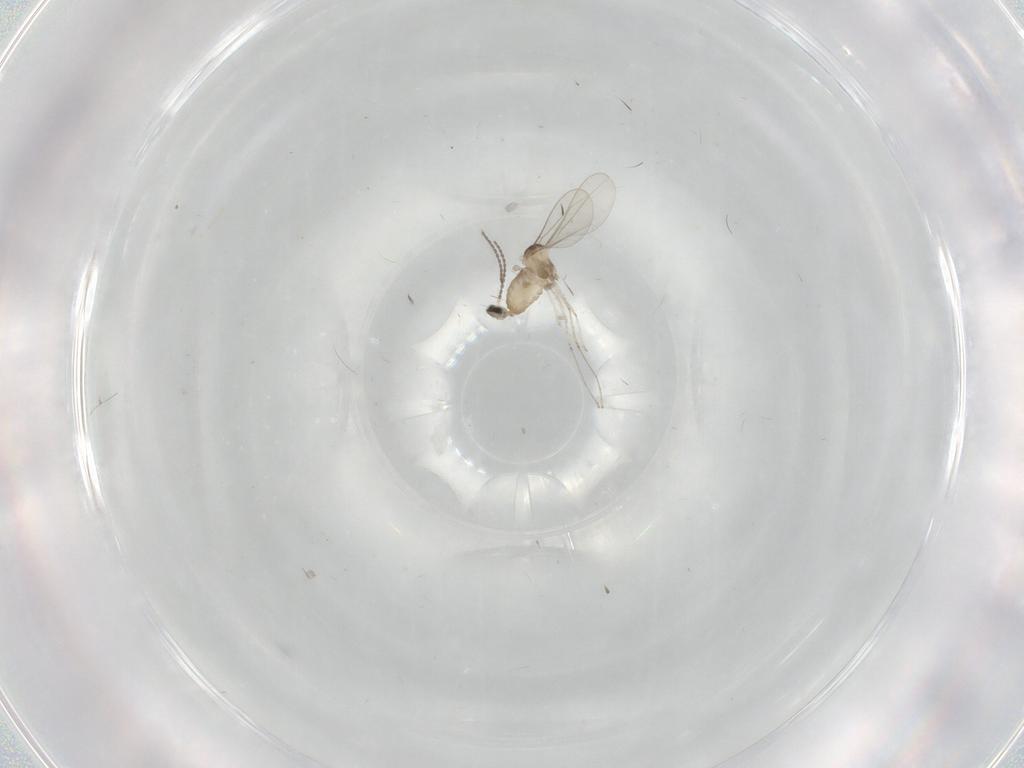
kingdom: Animalia
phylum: Arthropoda
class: Insecta
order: Diptera
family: Cecidomyiidae
